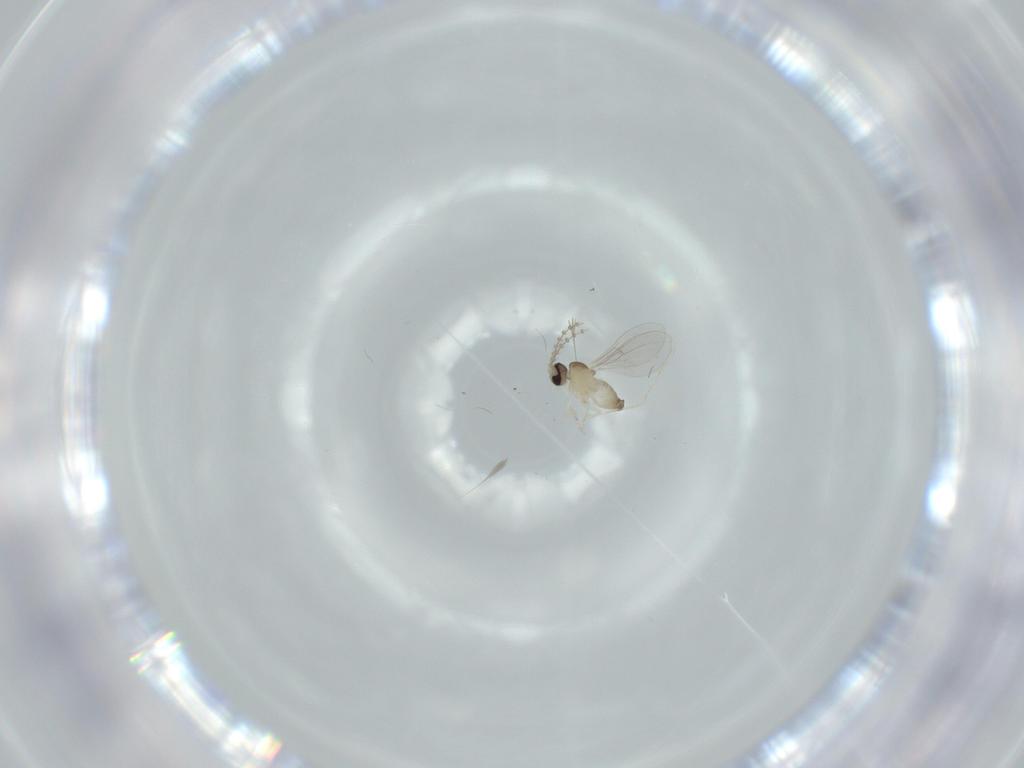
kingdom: Animalia
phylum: Arthropoda
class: Insecta
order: Diptera
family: Cecidomyiidae
